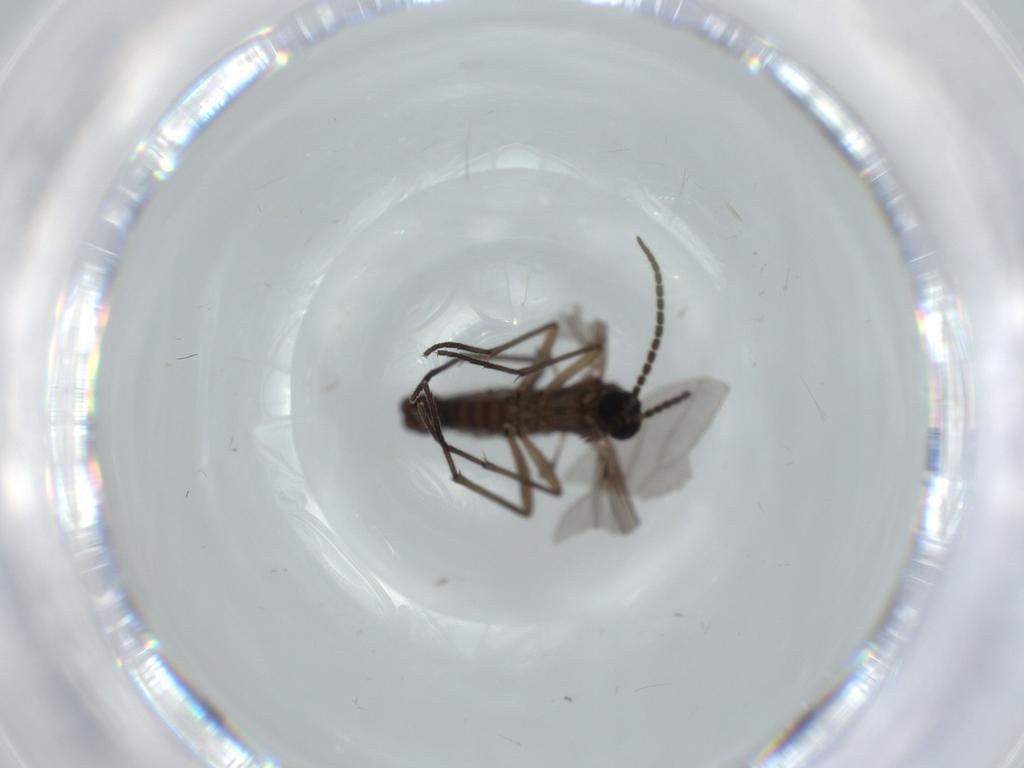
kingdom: Animalia
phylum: Arthropoda
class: Insecta
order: Diptera
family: Sciaridae
